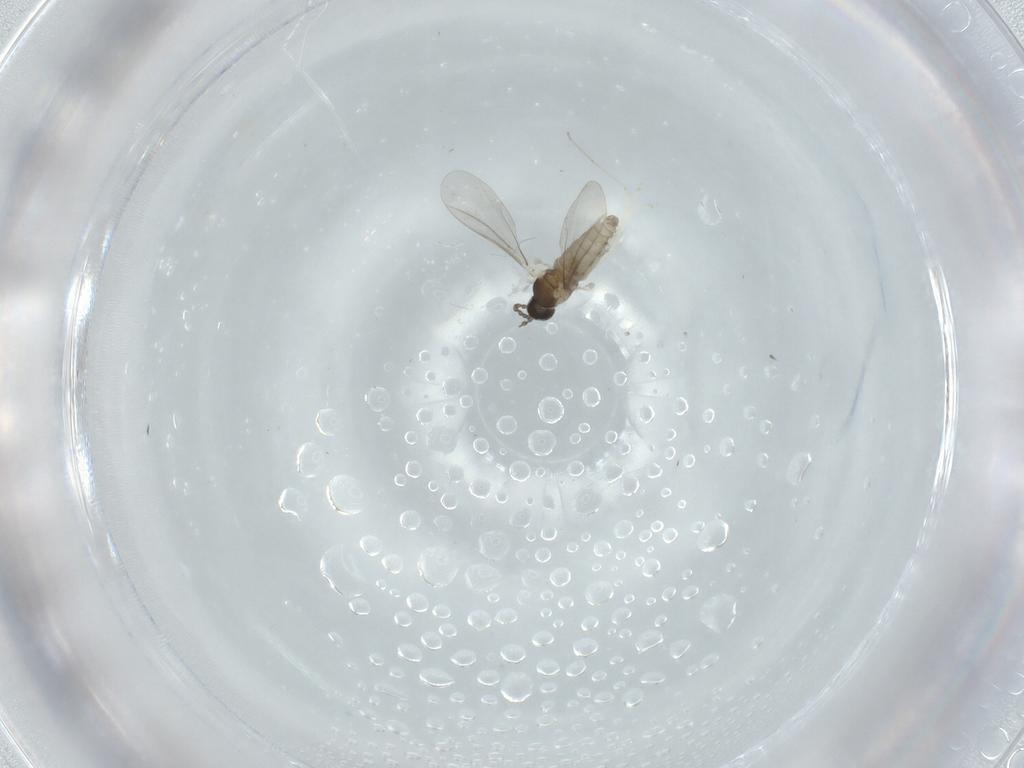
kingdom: Animalia
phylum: Arthropoda
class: Insecta
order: Diptera
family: Cecidomyiidae
